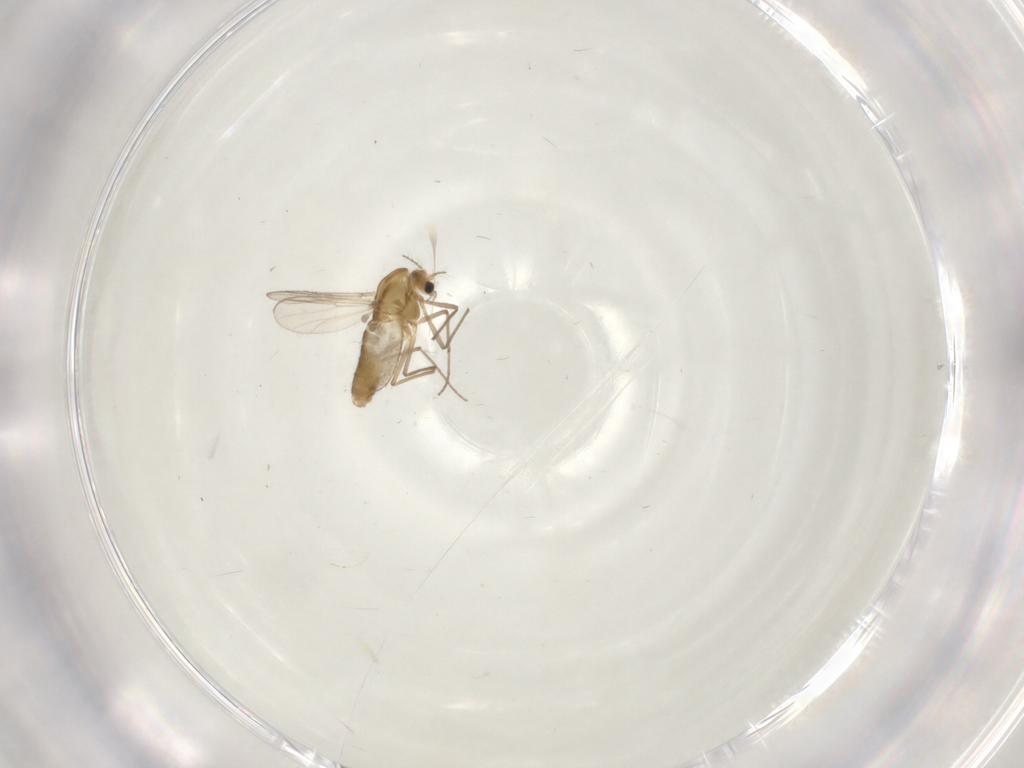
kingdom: Animalia
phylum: Arthropoda
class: Insecta
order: Diptera
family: Chironomidae
